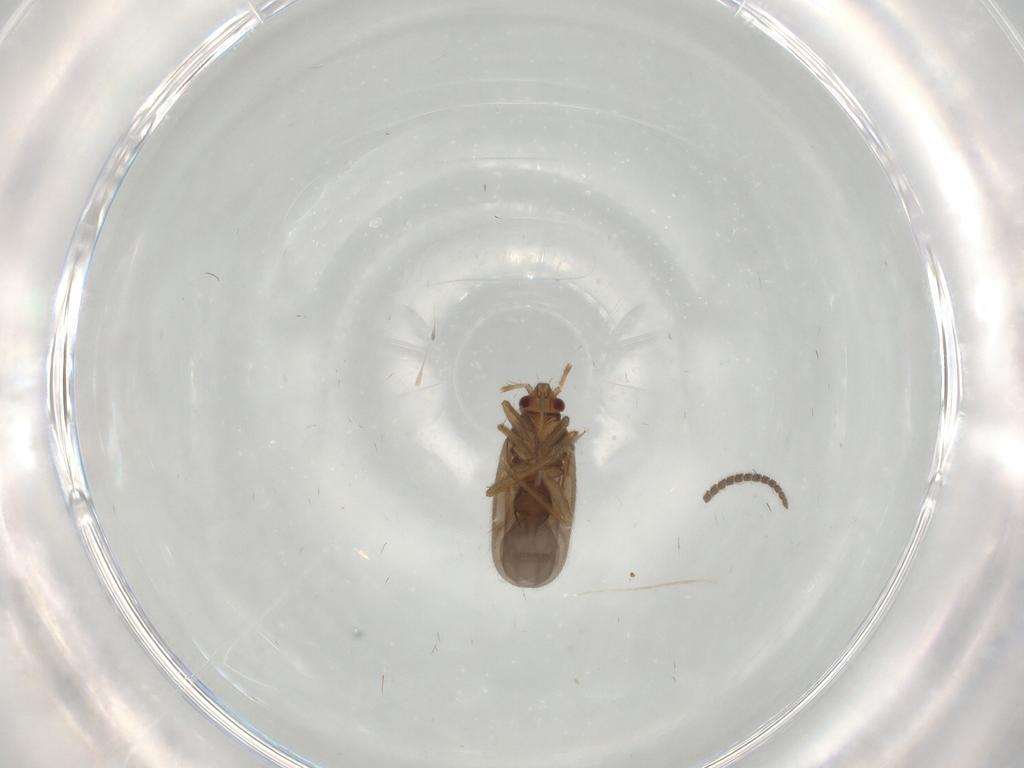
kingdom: Animalia
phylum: Arthropoda
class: Insecta
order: Hemiptera
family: Ceratocombidae
